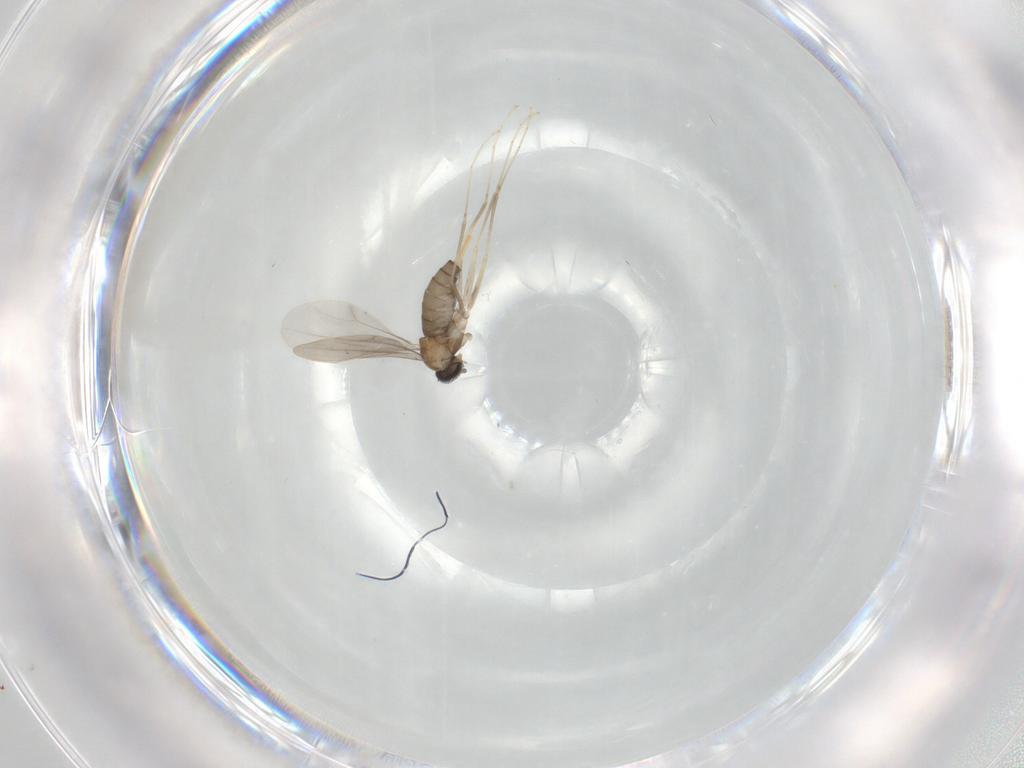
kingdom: Animalia
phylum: Arthropoda
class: Insecta
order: Diptera
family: Cecidomyiidae
